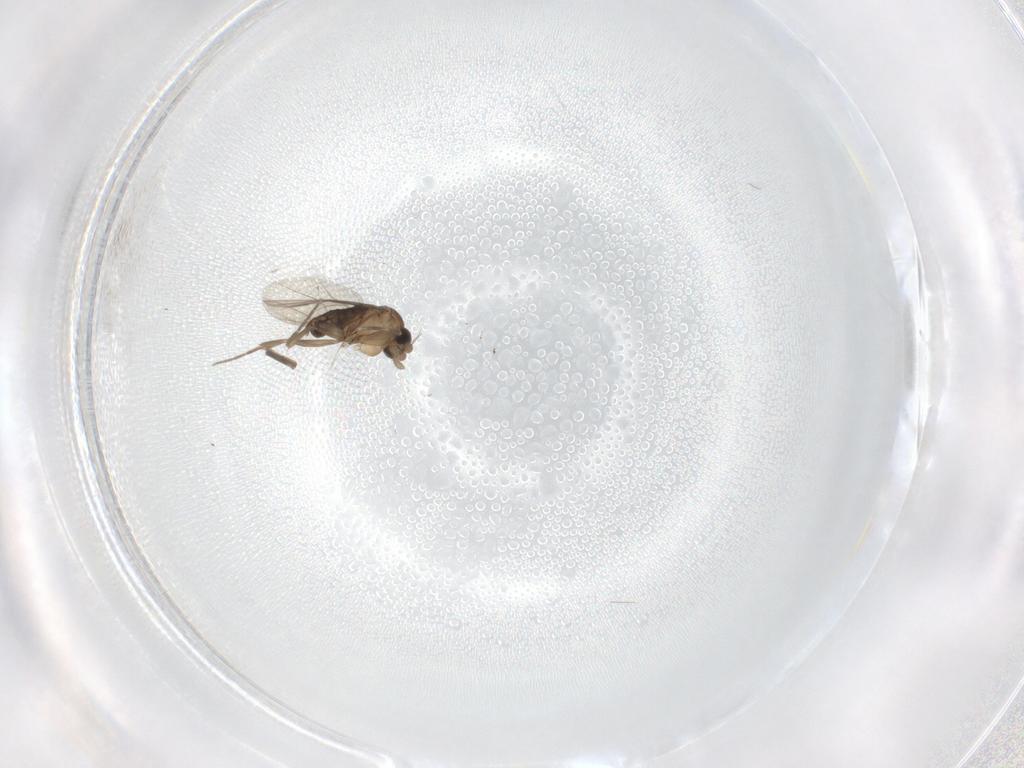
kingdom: Animalia
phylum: Arthropoda
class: Insecta
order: Diptera
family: Phoridae
